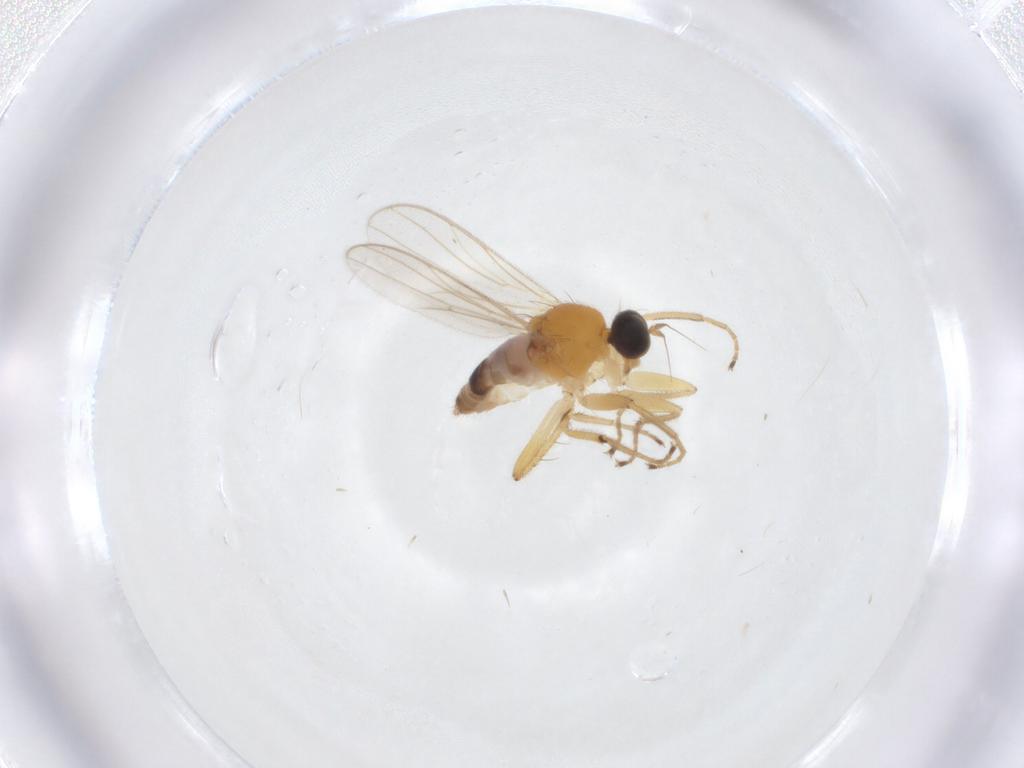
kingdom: Animalia
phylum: Arthropoda
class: Insecta
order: Diptera
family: Hybotidae
